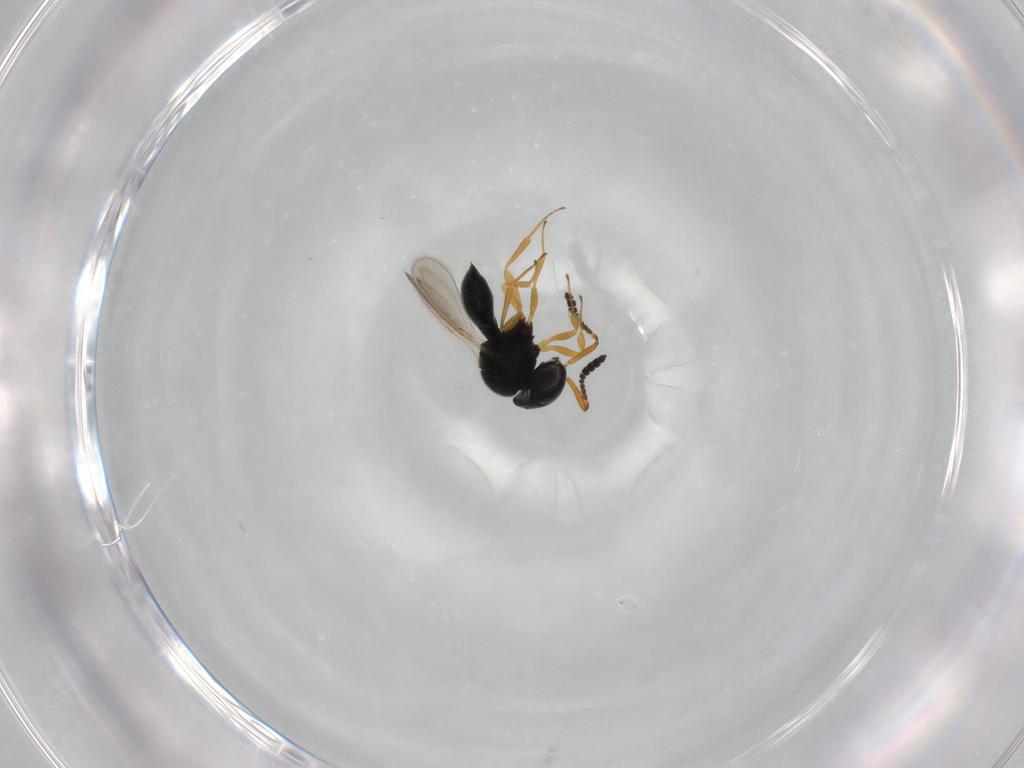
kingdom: Animalia
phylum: Arthropoda
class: Insecta
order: Hymenoptera
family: Scelionidae
